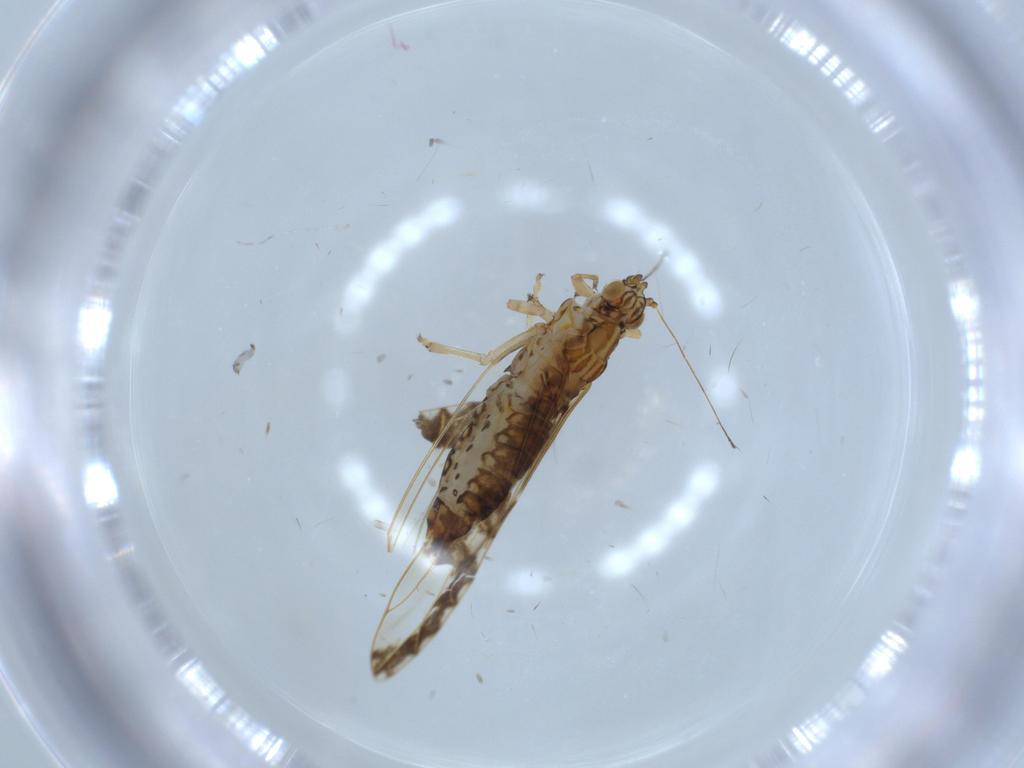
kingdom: Animalia
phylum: Arthropoda
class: Insecta
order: Hemiptera
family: Triozidae
